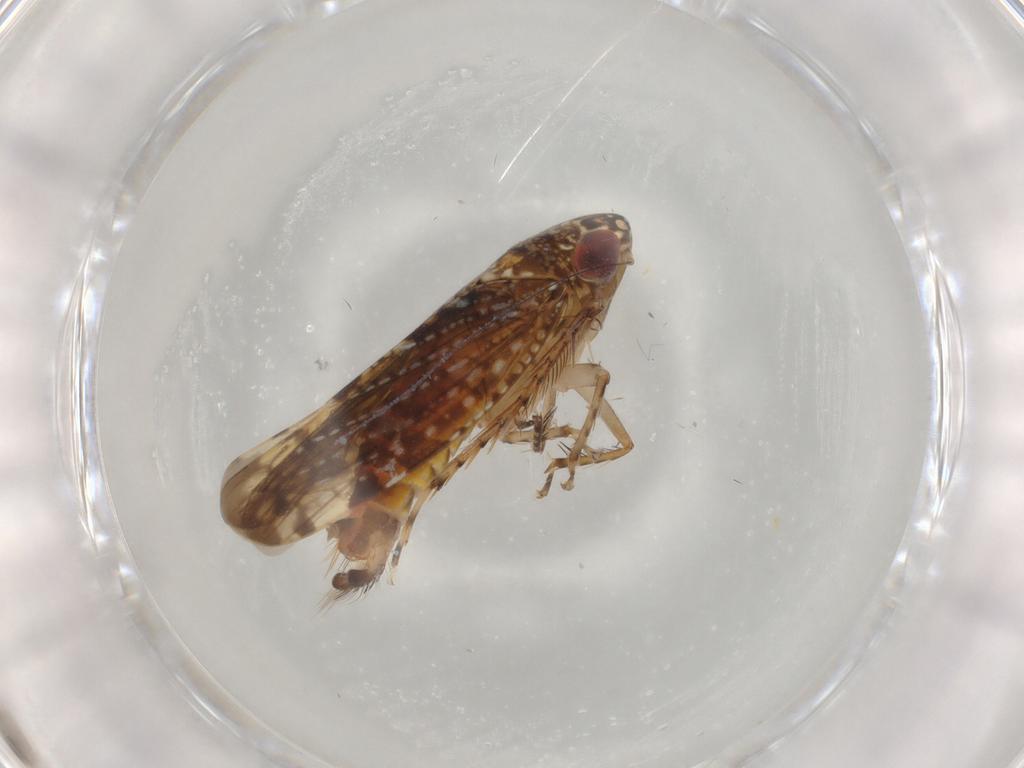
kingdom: Animalia
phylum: Arthropoda
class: Insecta
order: Hemiptera
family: Cicadellidae
